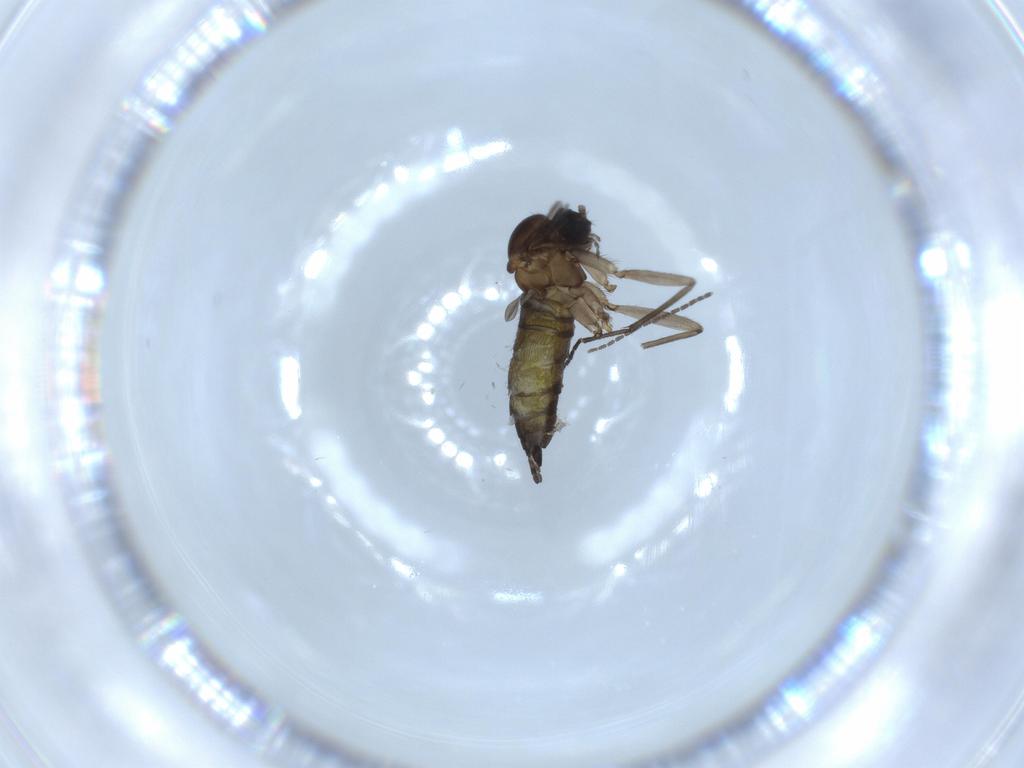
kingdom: Animalia
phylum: Arthropoda
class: Insecta
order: Diptera
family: Sciaridae
